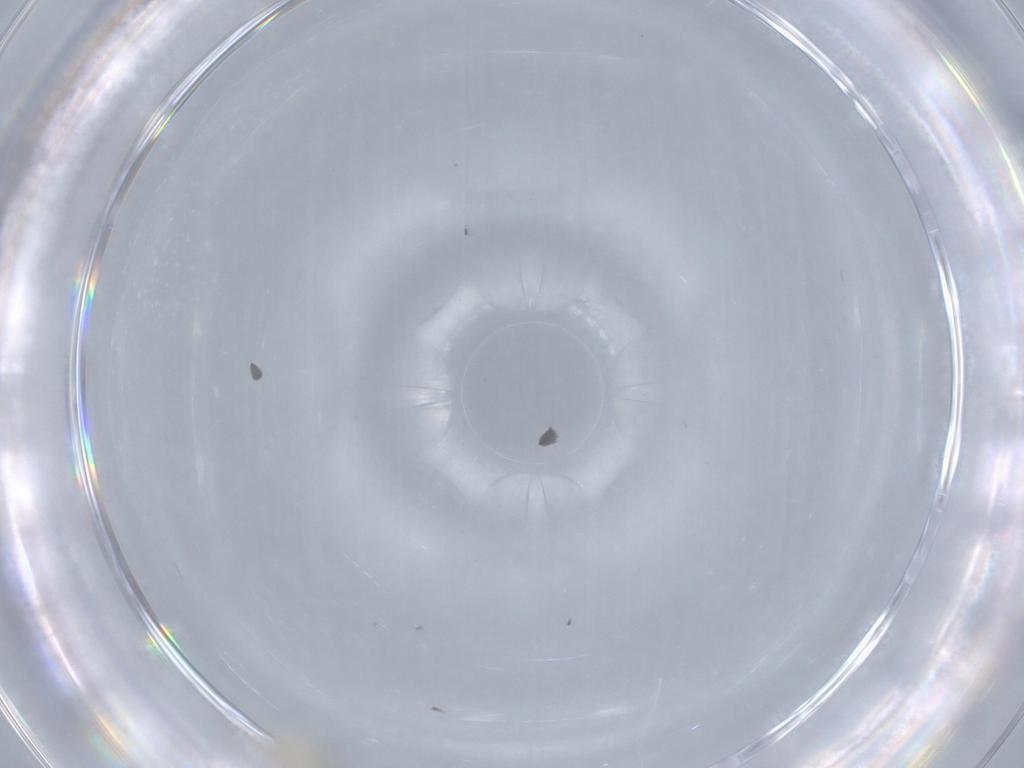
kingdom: Animalia
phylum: Arthropoda
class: Insecta
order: Diptera
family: Cecidomyiidae
